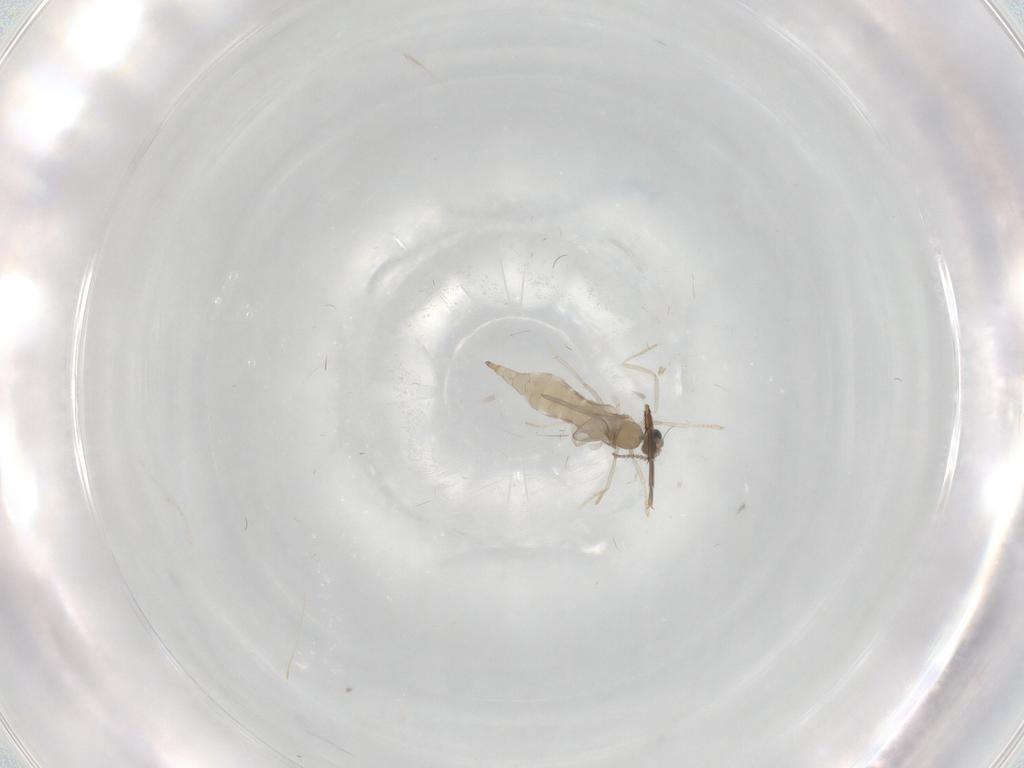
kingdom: Animalia
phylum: Arthropoda
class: Insecta
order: Diptera
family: Cecidomyiidae
